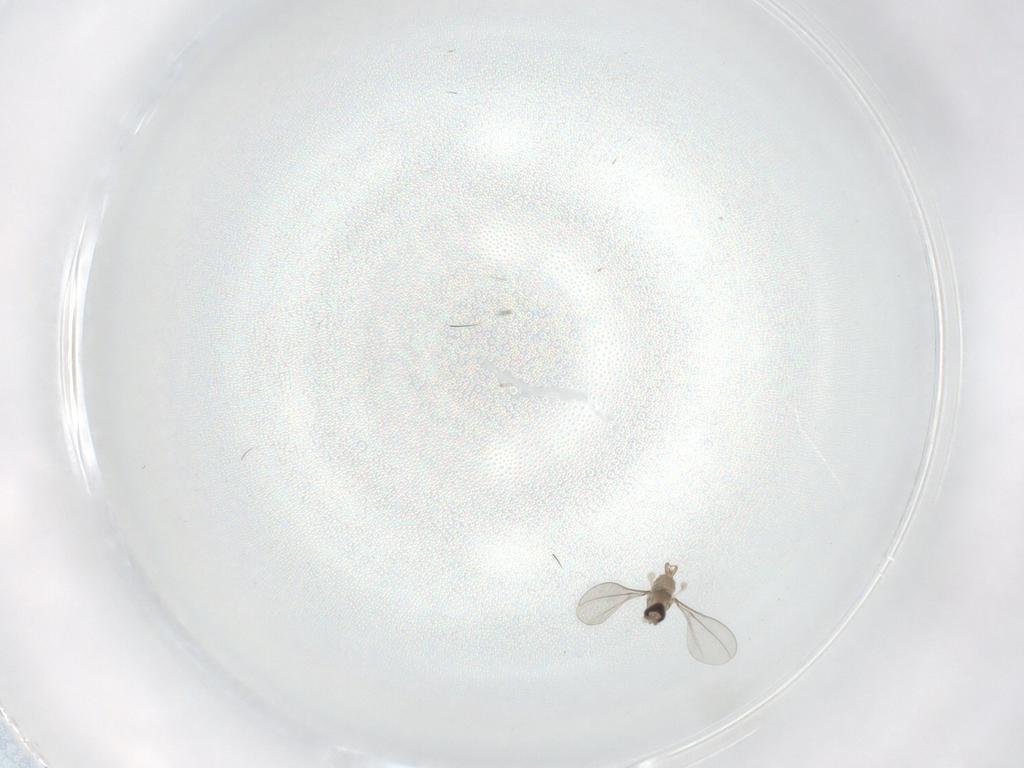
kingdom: Animalia
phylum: Arthropoda
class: Insecta
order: Diptera
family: Cecidomyiidae
